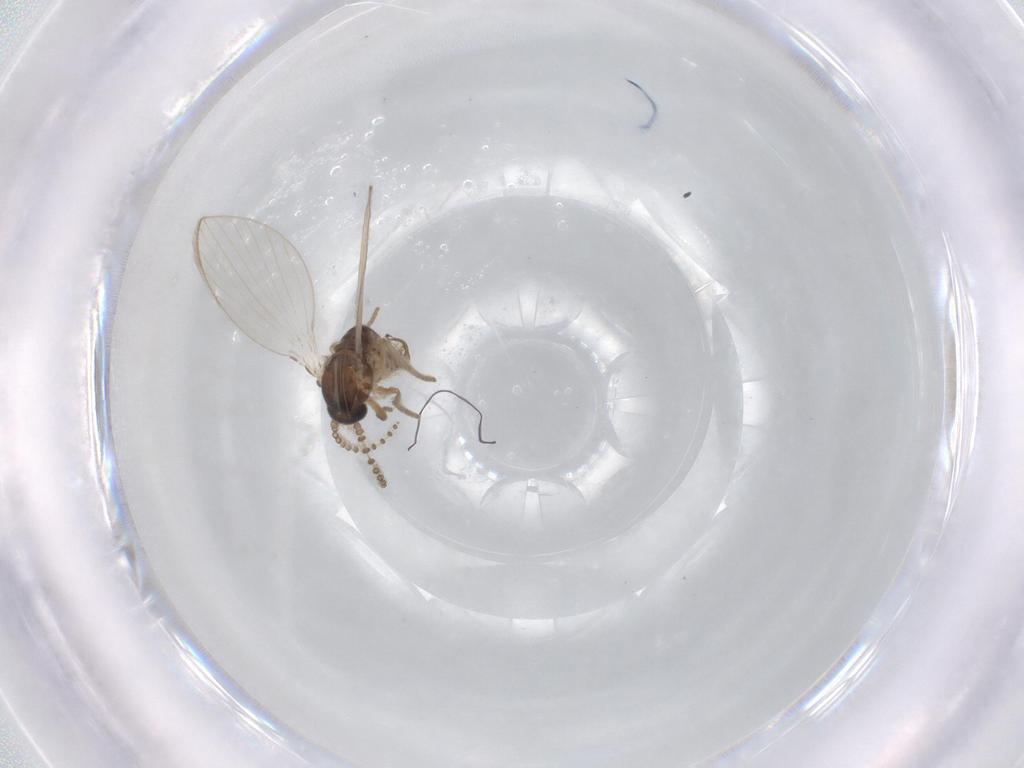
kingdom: Animalia
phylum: Arthropoda
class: Insecta
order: Diptera
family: Psychodidae
